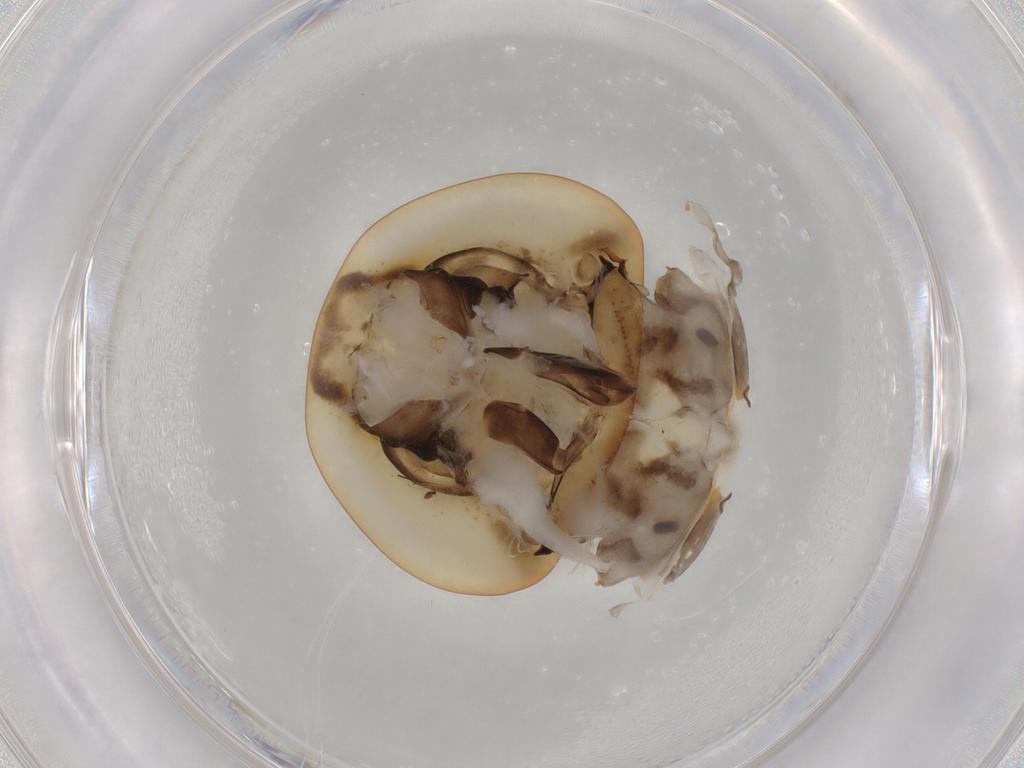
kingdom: Animalia
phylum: Arthropoda
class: Insecta
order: Blattodea
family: Ectobiidae
